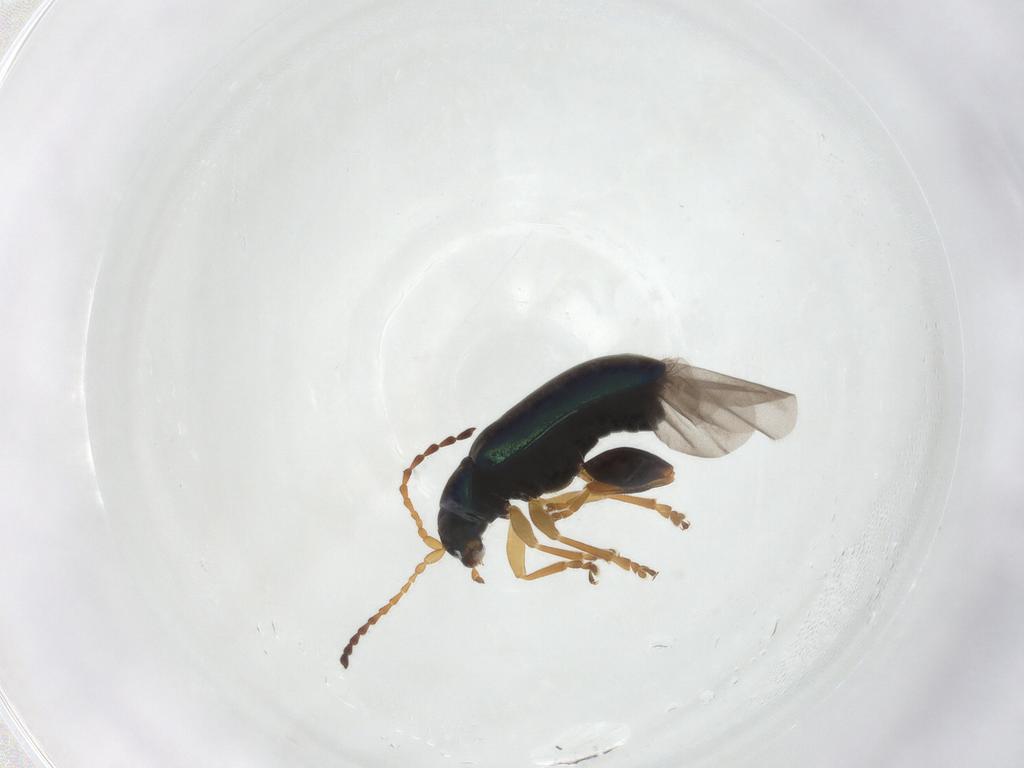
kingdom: Animalia
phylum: Arthropoda
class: Insecta
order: Coleoptera
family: Chrysomelidae
